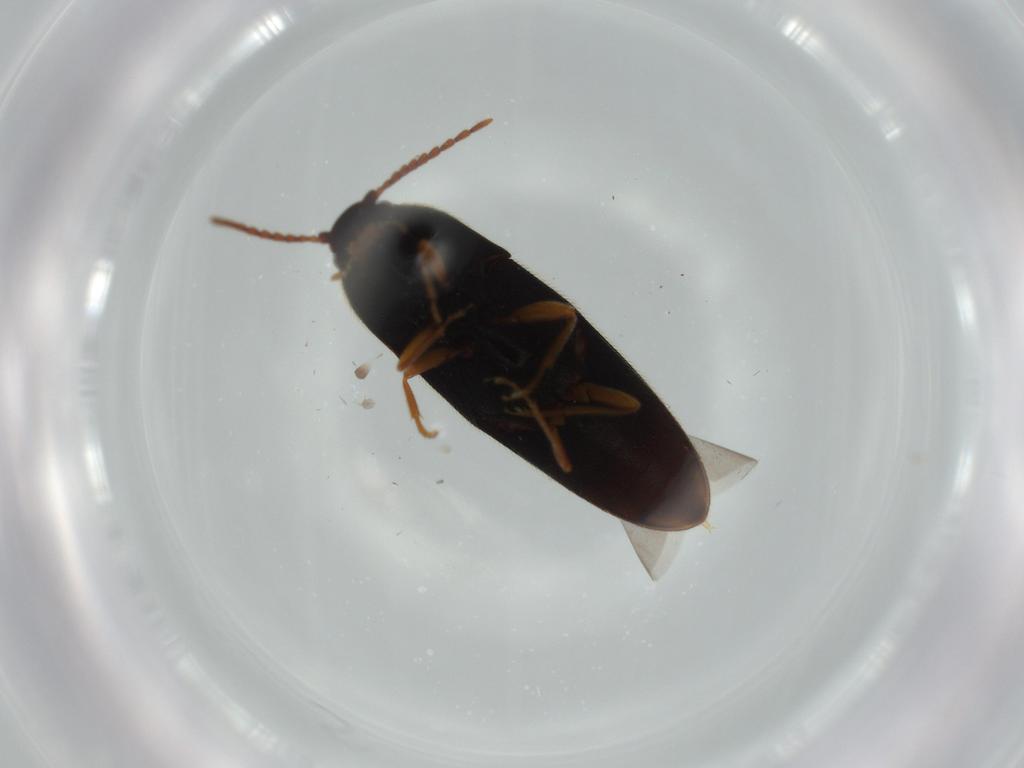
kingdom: Animalia
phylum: Arthropoda
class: Insecta
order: Coleoptera
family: Elateridae
